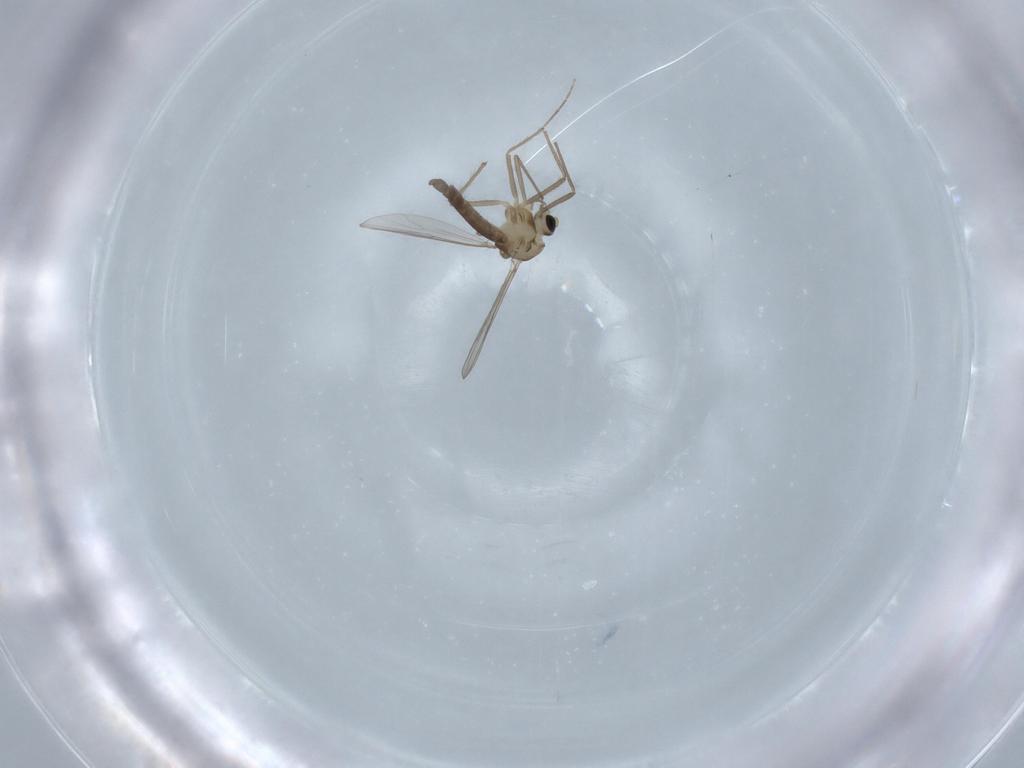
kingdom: Animalia
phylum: Arthropoda
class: Insecta
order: Diptera
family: Chironomidae
